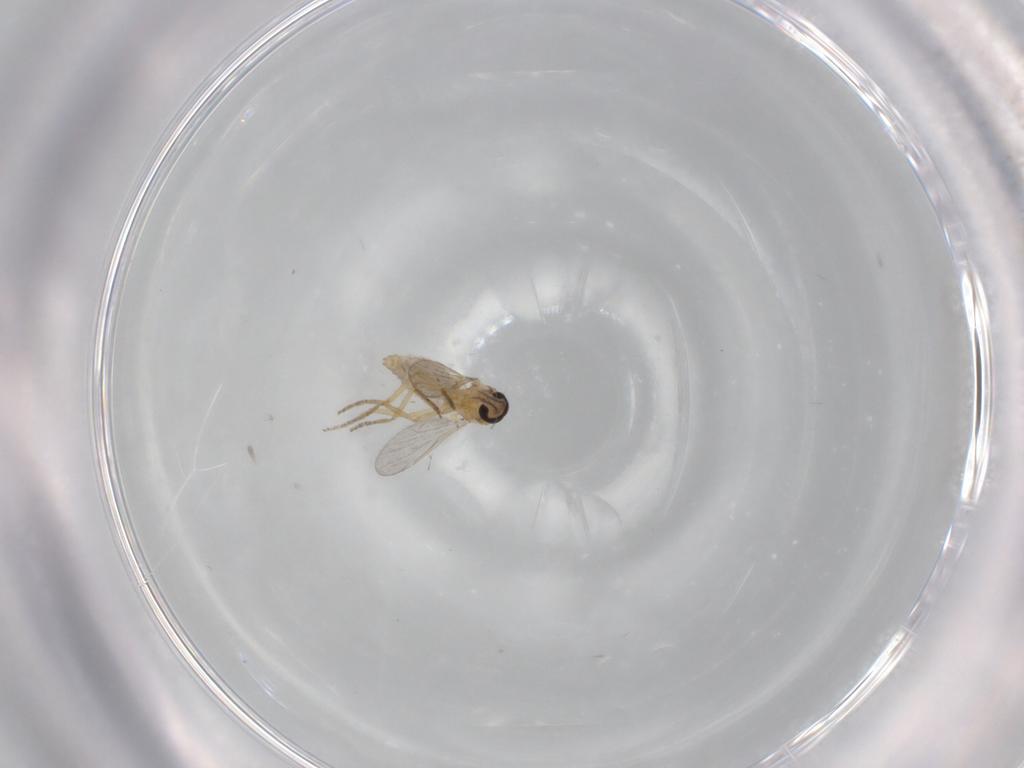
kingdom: Animalia
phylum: Arthropoda
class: Insecta
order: Diptera
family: Ceratopogonidae
